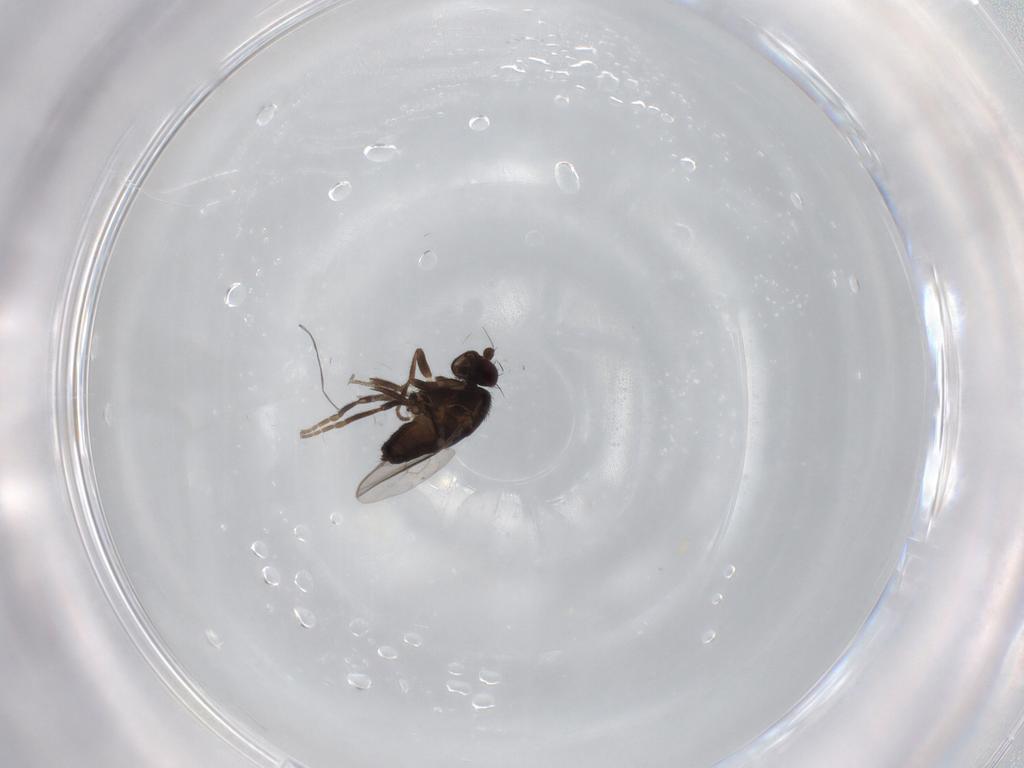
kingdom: Animalia
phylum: Arthropoda
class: Insecta
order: Diptera
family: Sphaeroceridae
